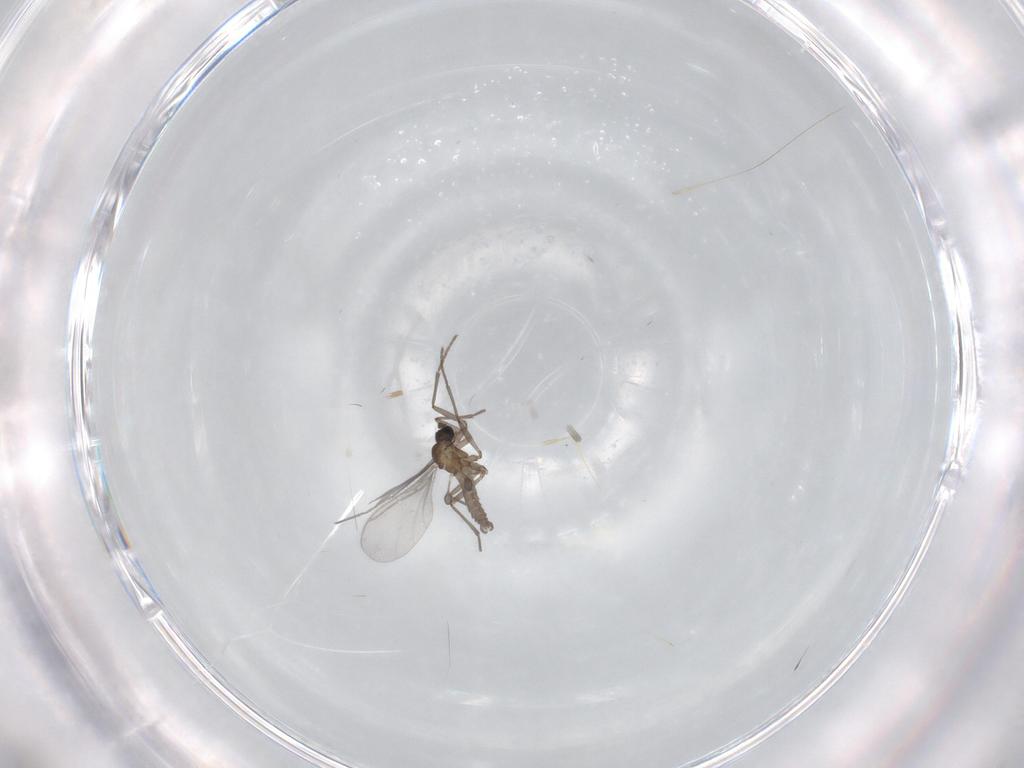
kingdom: Animalia
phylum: Arthropoda
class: Insecta
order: Diptera
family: Sciaridae
